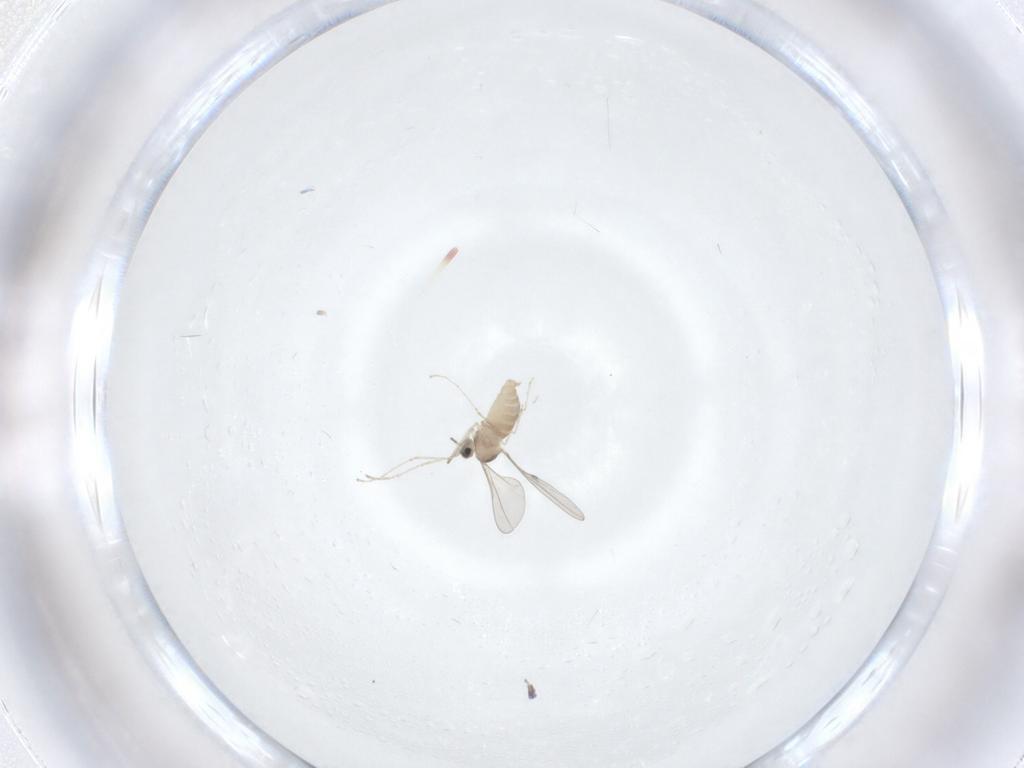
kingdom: Animalia
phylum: Arthropoda
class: Insecta
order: Diptera
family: Cecidomyiidae
